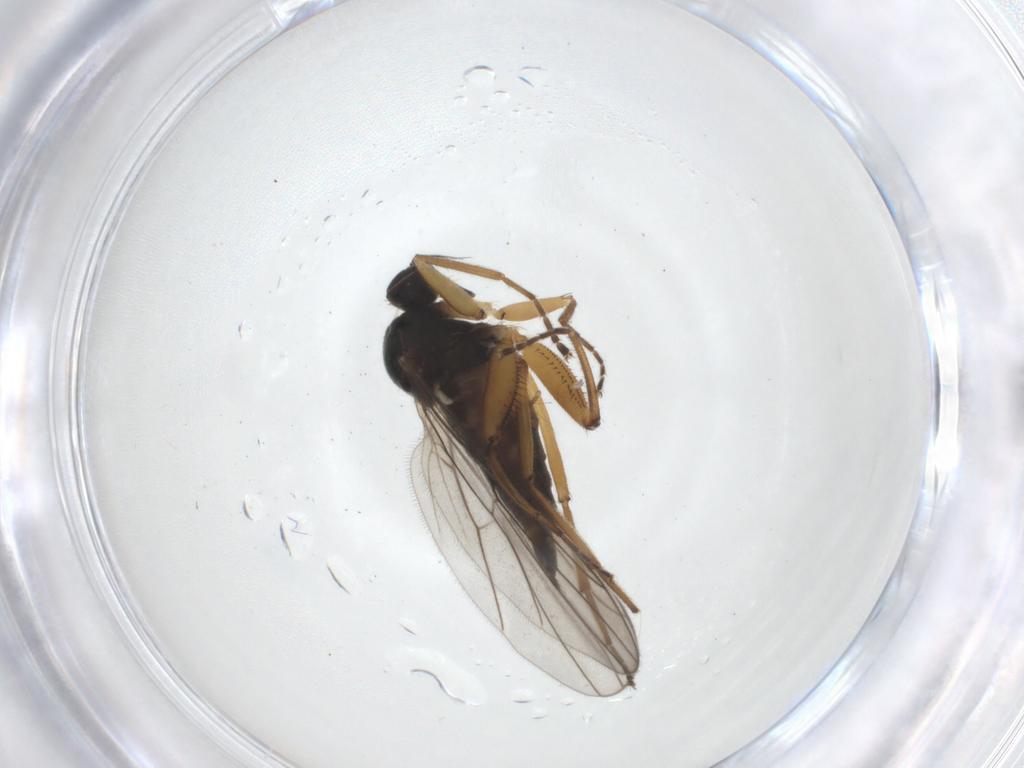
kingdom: Animalia
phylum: Arthropoda
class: Insecta
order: Diptera
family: Hybotidae
